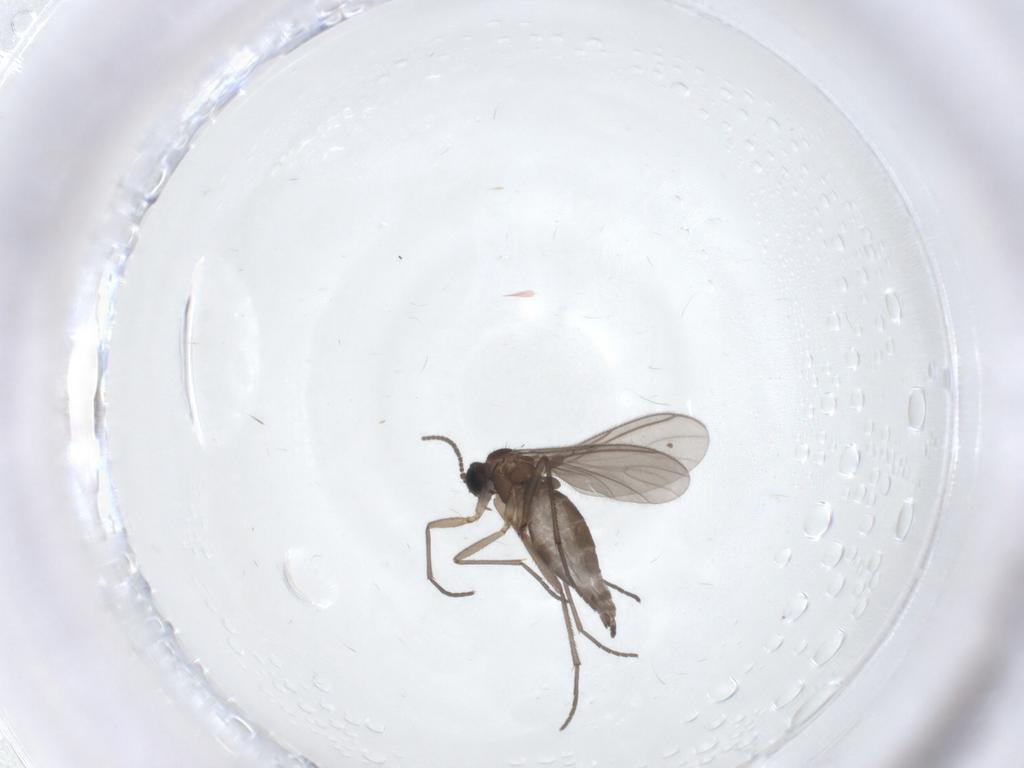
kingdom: Animalia
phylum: Arthropoda
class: Insecta
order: Diptera
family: Sciaridae
